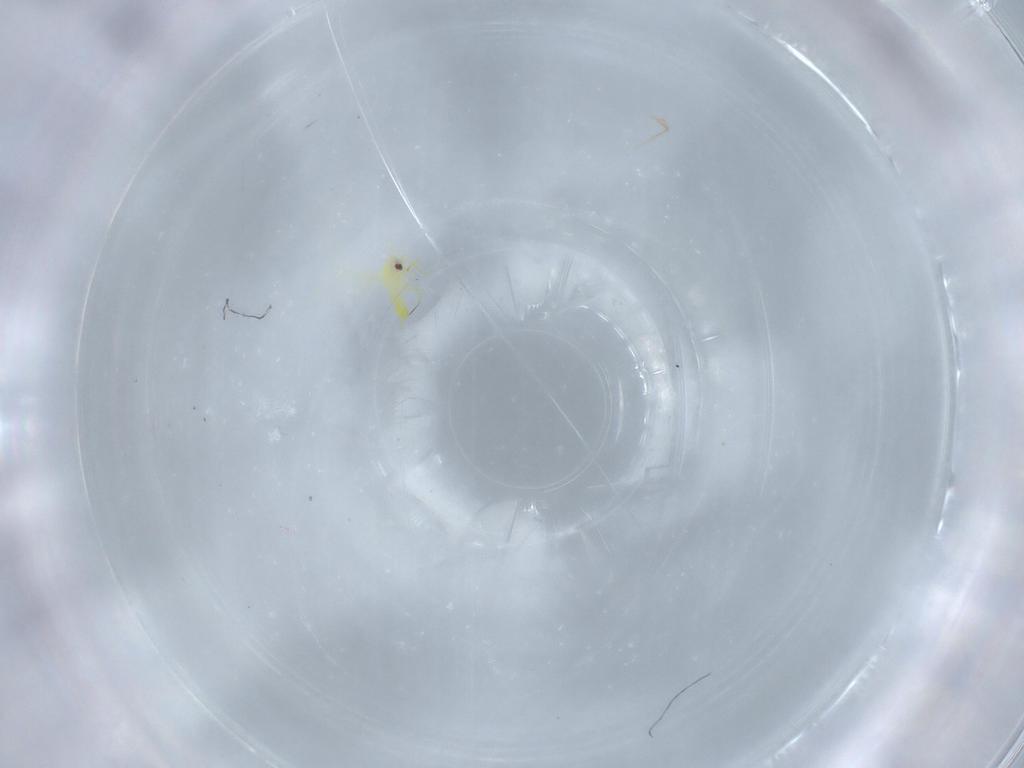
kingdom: Animalia
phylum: Arthropoda
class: Insecta
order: Hemiptera
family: Aleyrodidae
